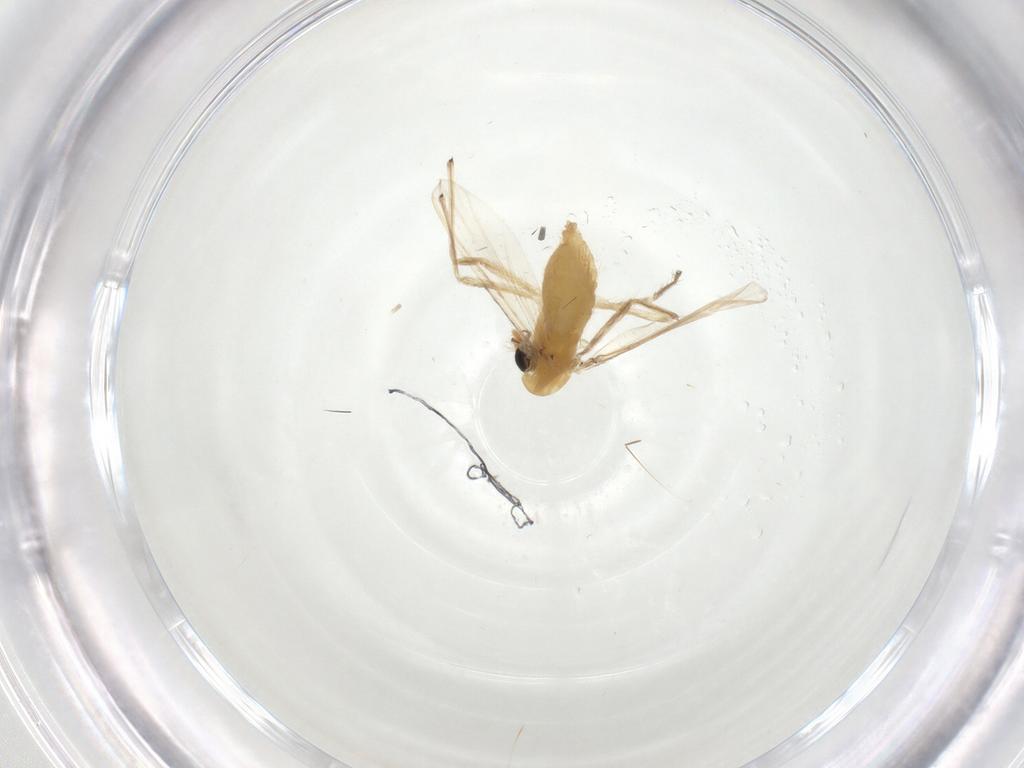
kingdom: Animalia
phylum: Arthropoda
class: Insecta
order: Diptera
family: Chironomidae
